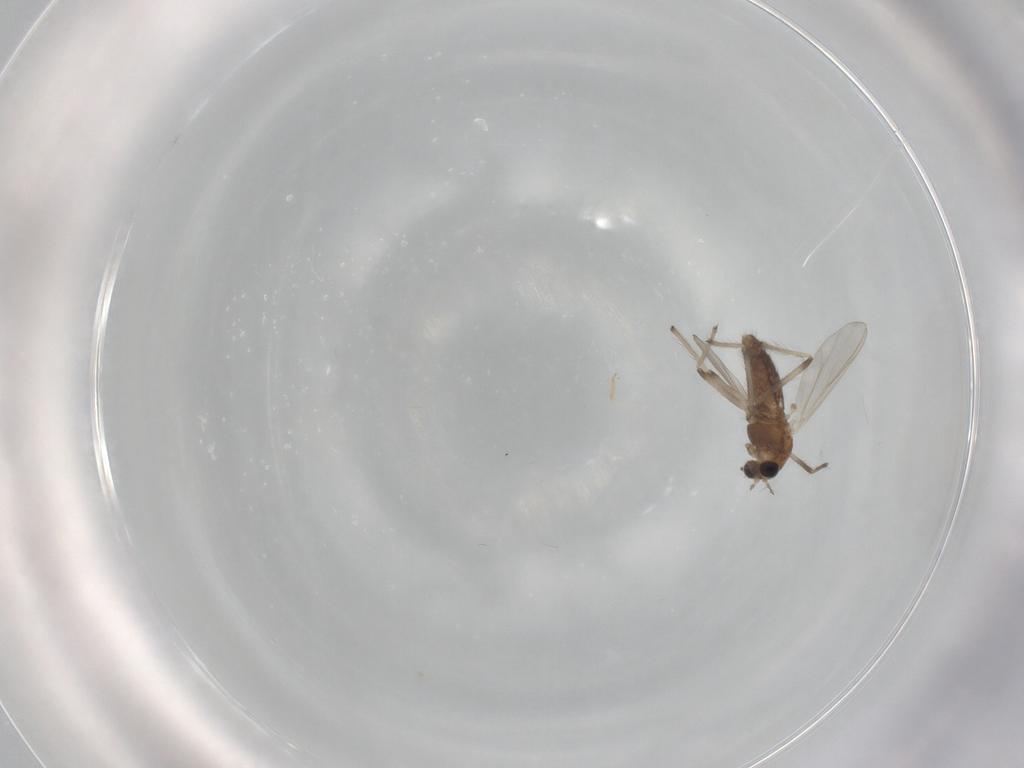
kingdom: Animalia
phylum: Arthropoda
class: Insecta
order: Diptera
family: Chironomidae
